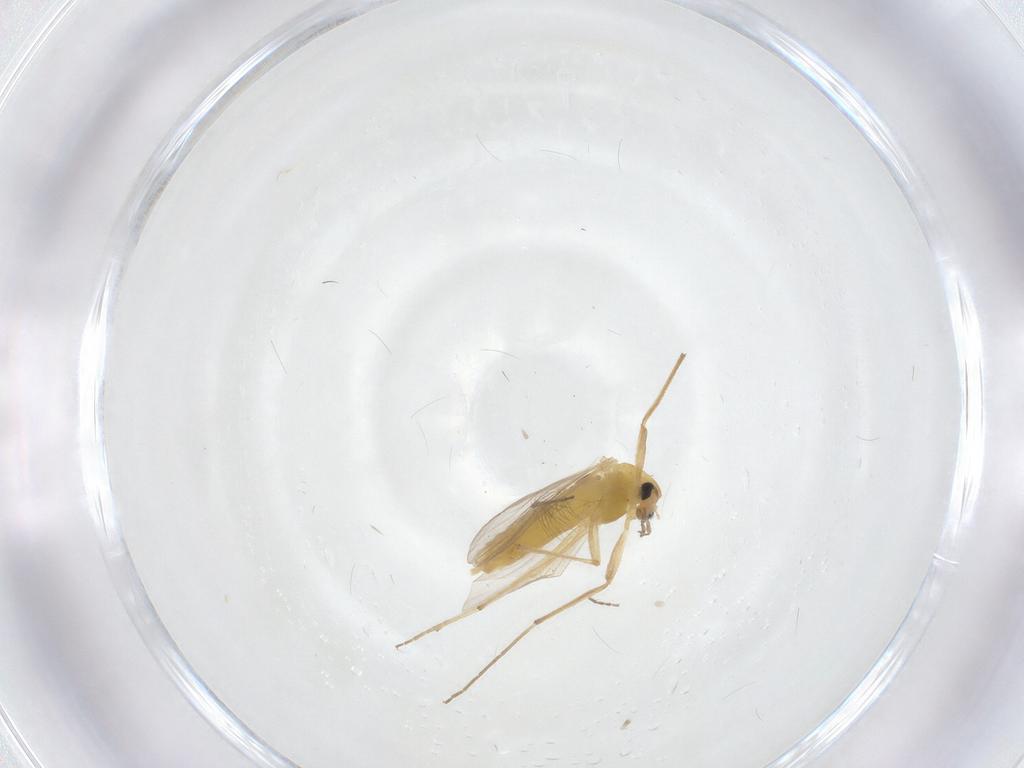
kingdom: Animalia
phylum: Arthropoda
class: Insecta
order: Diptera
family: Chironomidae
